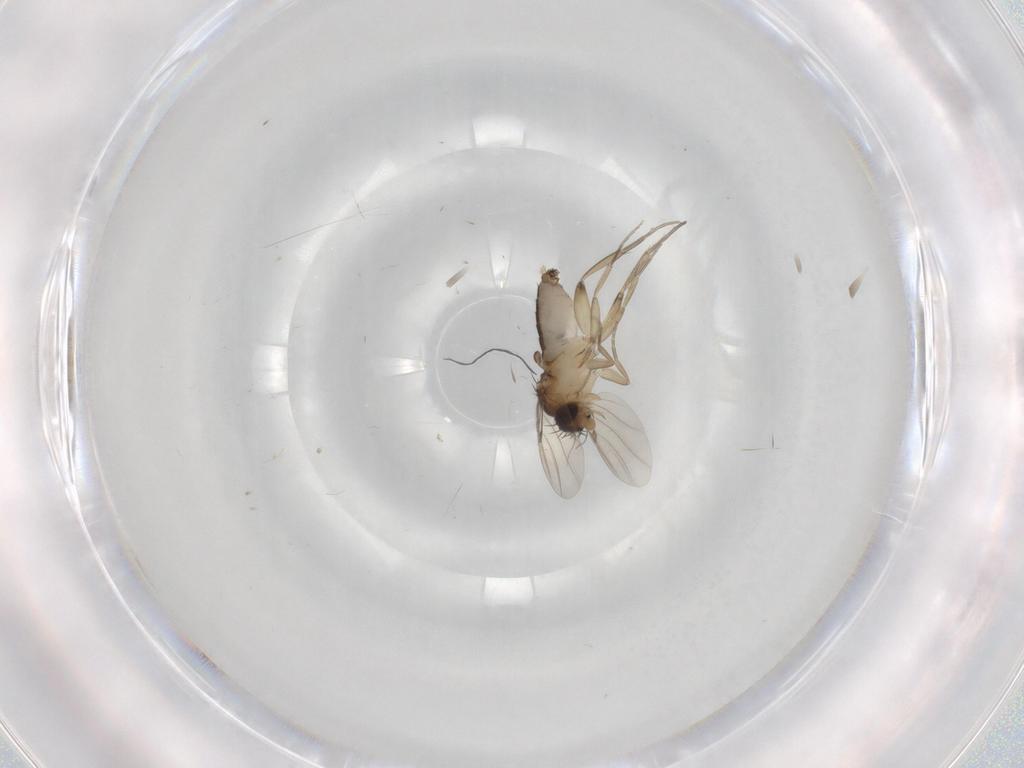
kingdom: Animalia
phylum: Arthropoda
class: Insecta
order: Diptera
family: Phoridae
